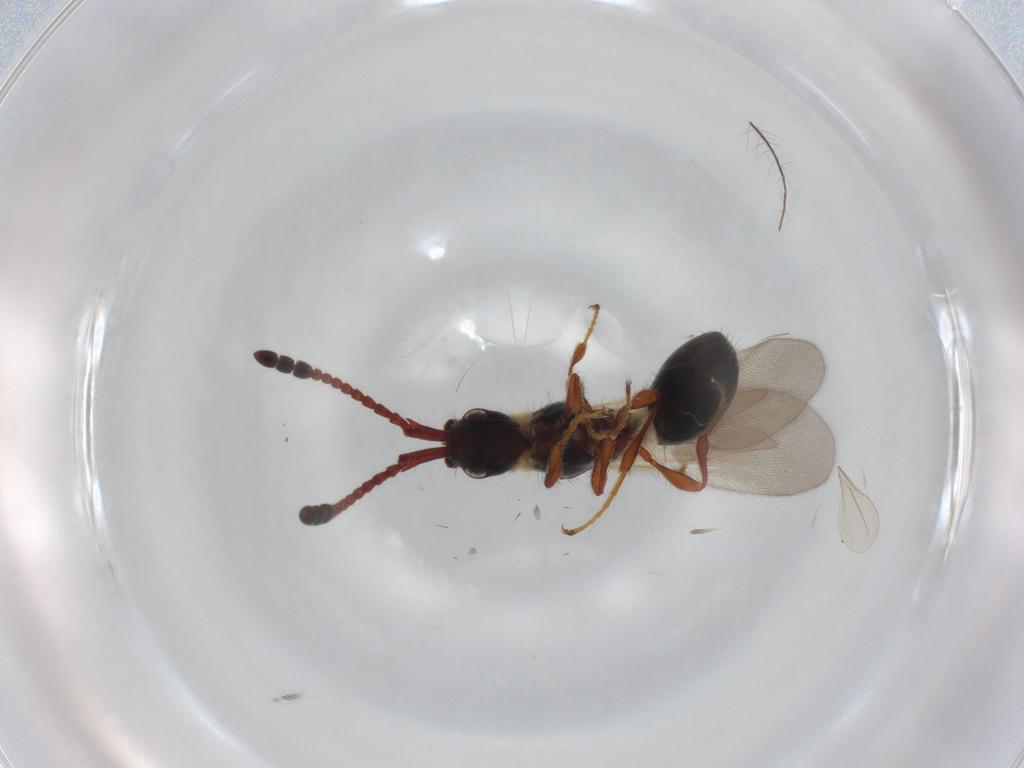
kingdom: Animalia
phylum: Arthropoda
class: Insecta
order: Hymenoptera
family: Diapriidae
